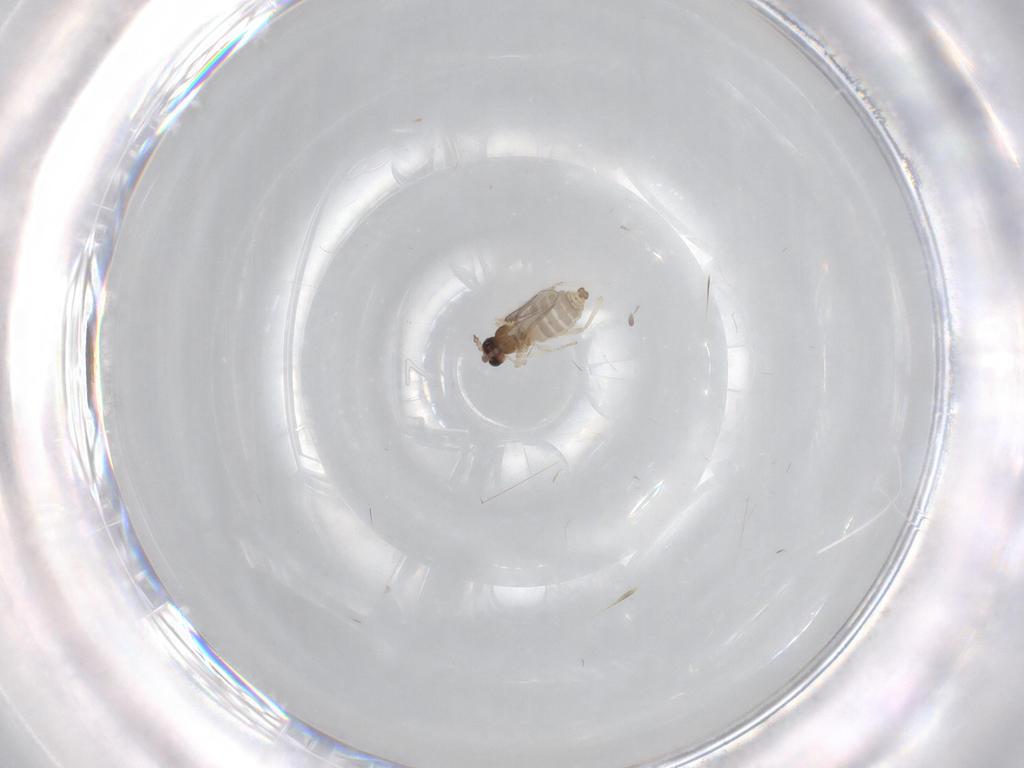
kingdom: Animalia
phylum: Arthropoda
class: Insecta
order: Diptera
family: Cecidomyiidae
